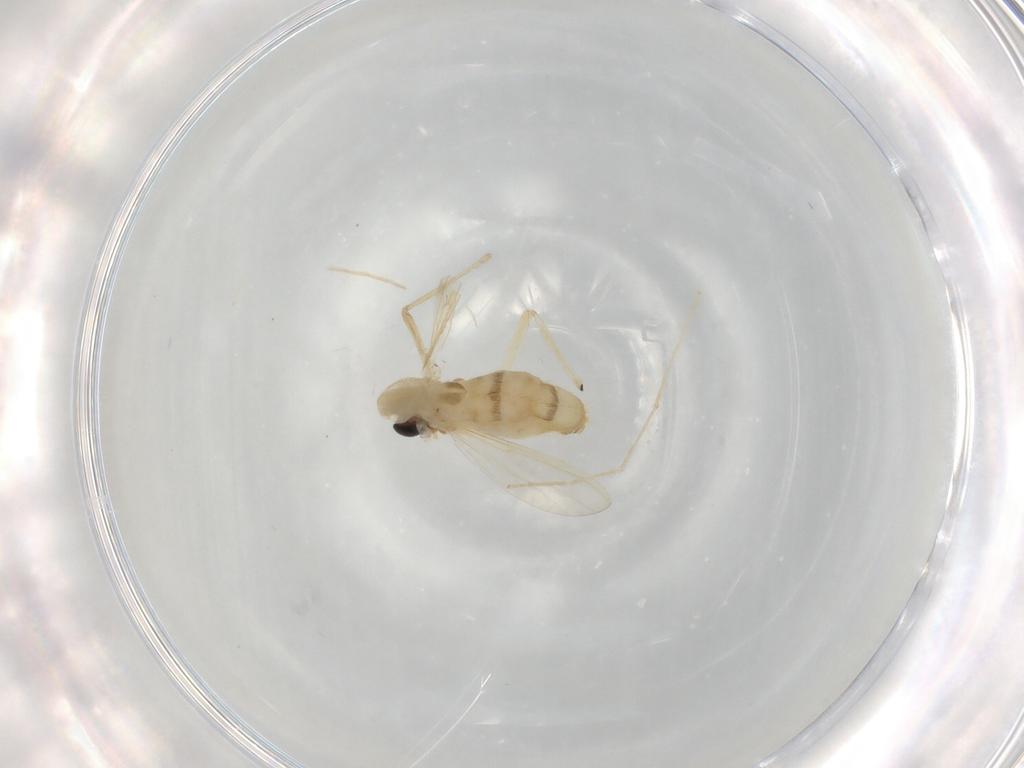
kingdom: Animalia
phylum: Arthropoda
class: Insecta
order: Diptera
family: Chironomidae
